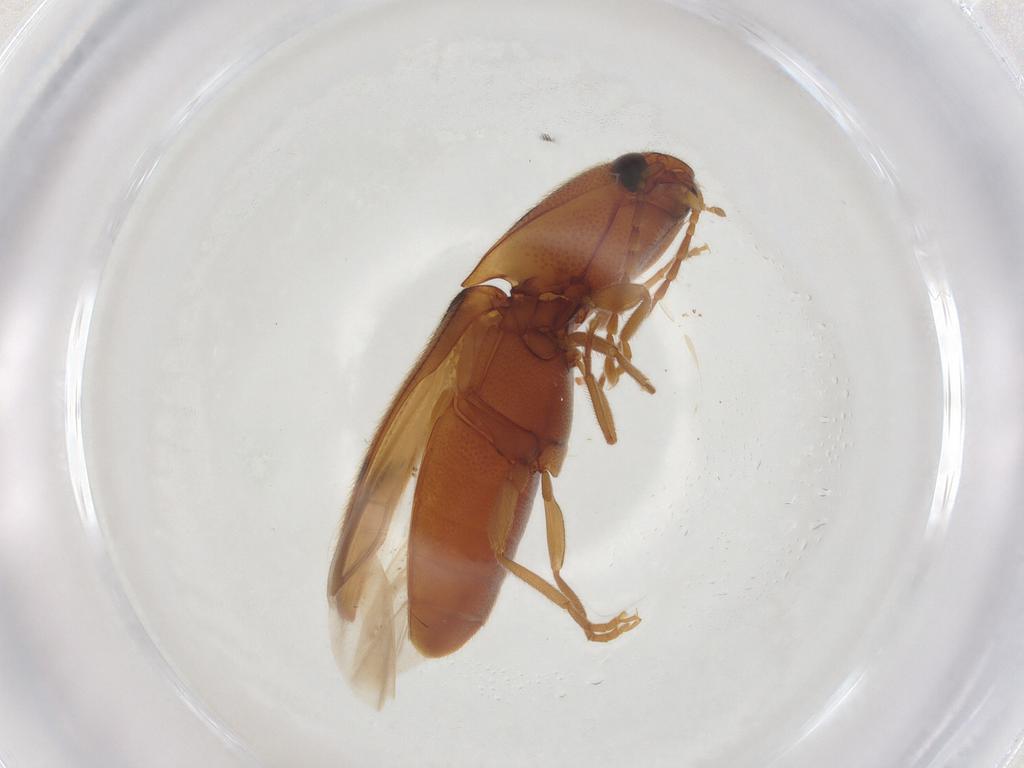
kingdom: Animalia
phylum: Arthropoda
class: Insecta
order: Coleoptera
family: Elateridae
